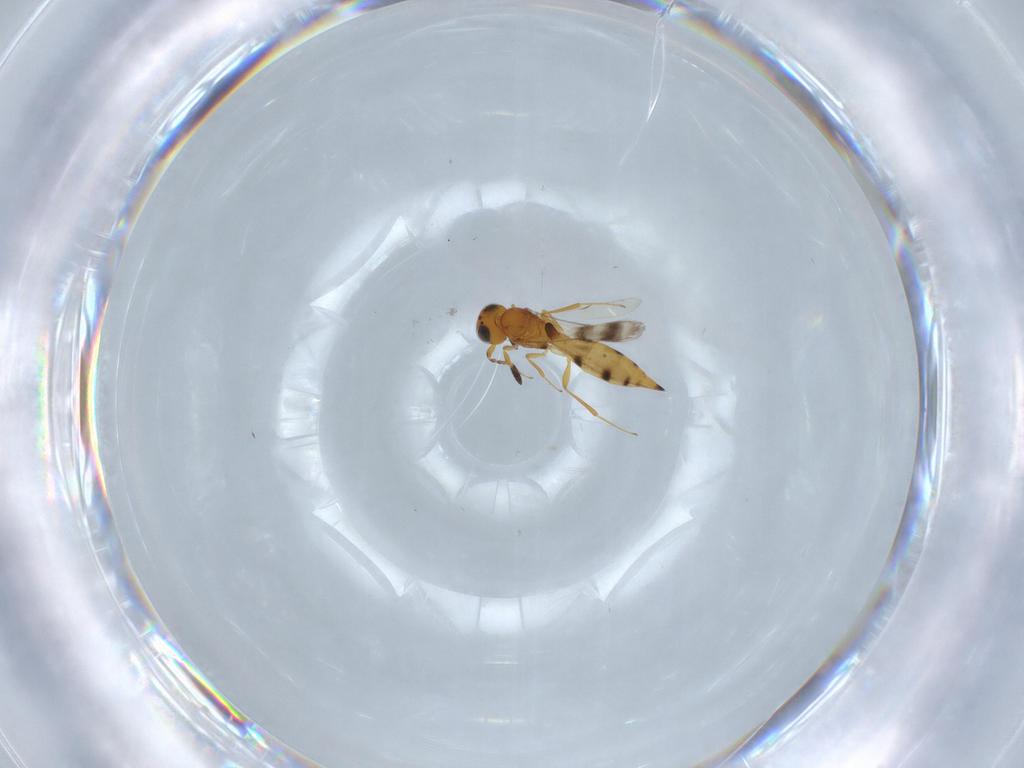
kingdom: Animalia
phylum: Arthropoda
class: Insecta
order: Hymenoptera
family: Scelionidae
